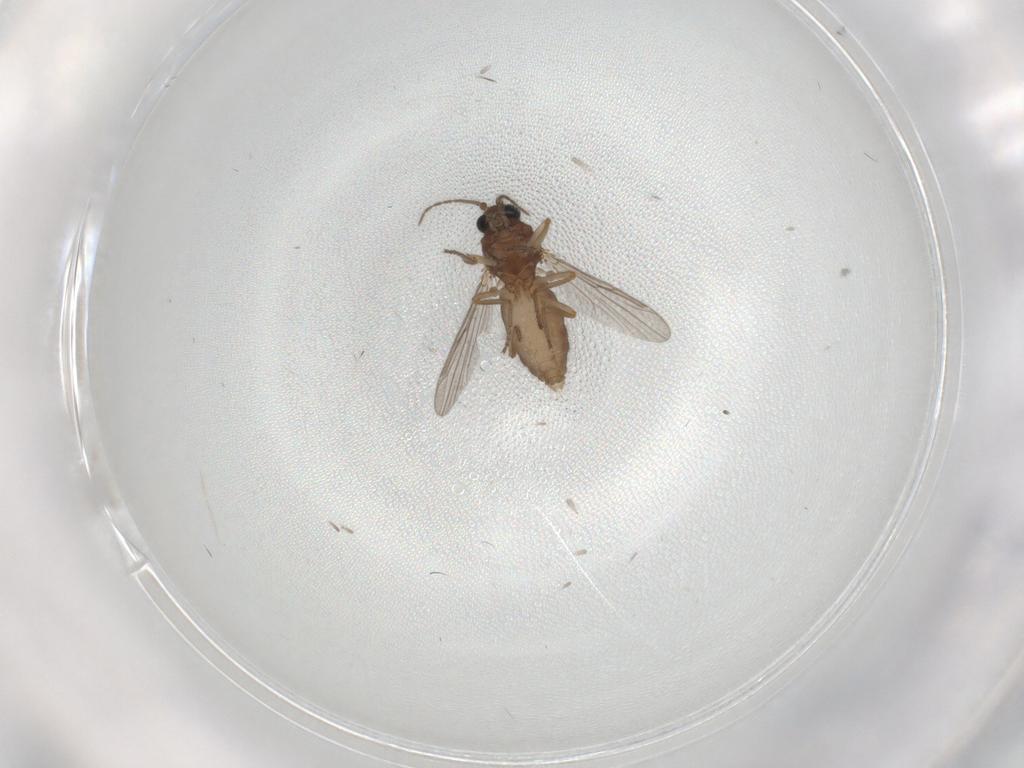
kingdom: Animalia
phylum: Arthropoda
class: Insecta
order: Diptera
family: Ceratopogonidae
